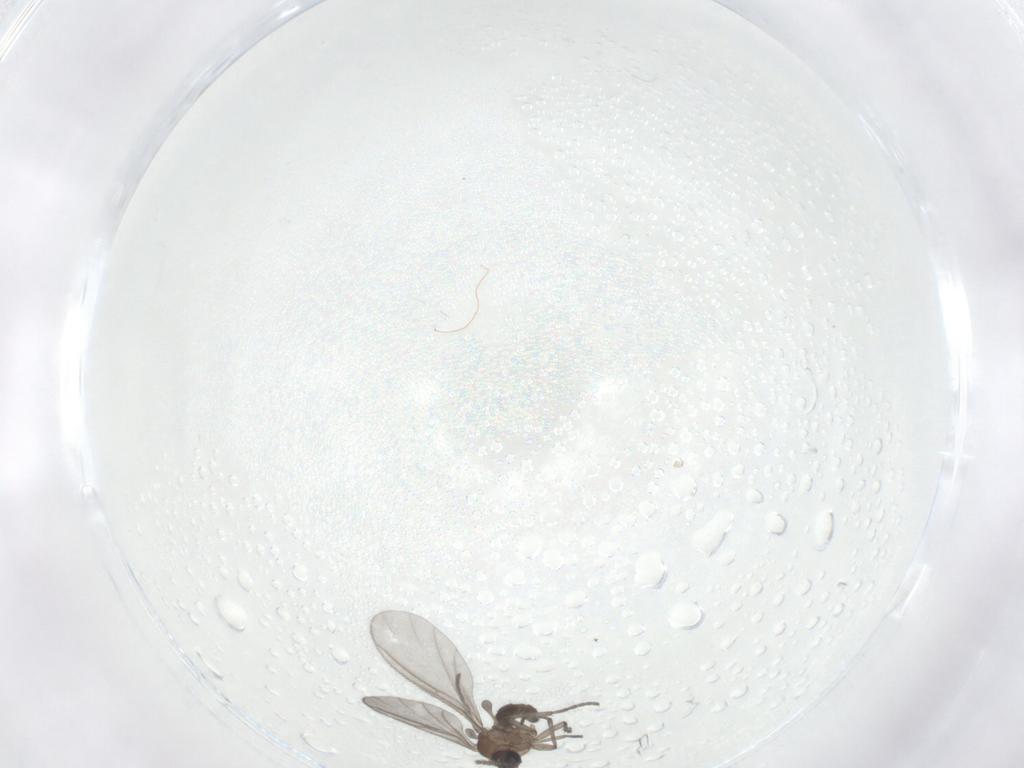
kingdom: Animalia
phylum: Arthropoda
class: Insecta
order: Diptera
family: Sciaridae
